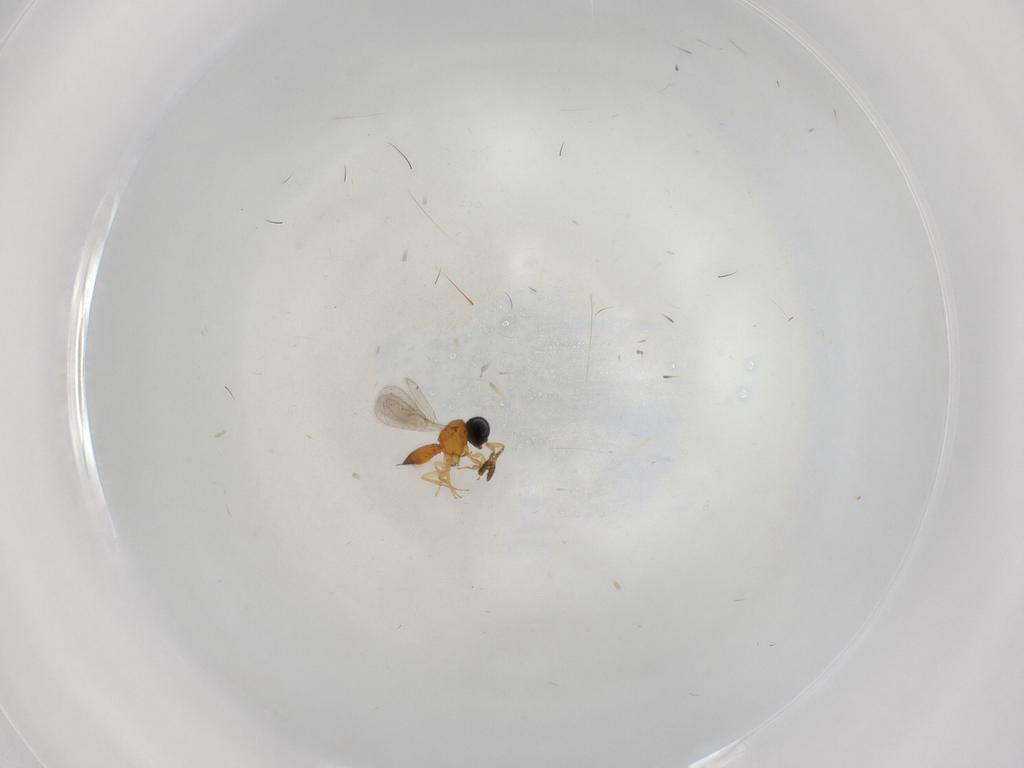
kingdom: Animalia
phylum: Arthropoda
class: Insecta
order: Hymenoptera
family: Scelionidae
